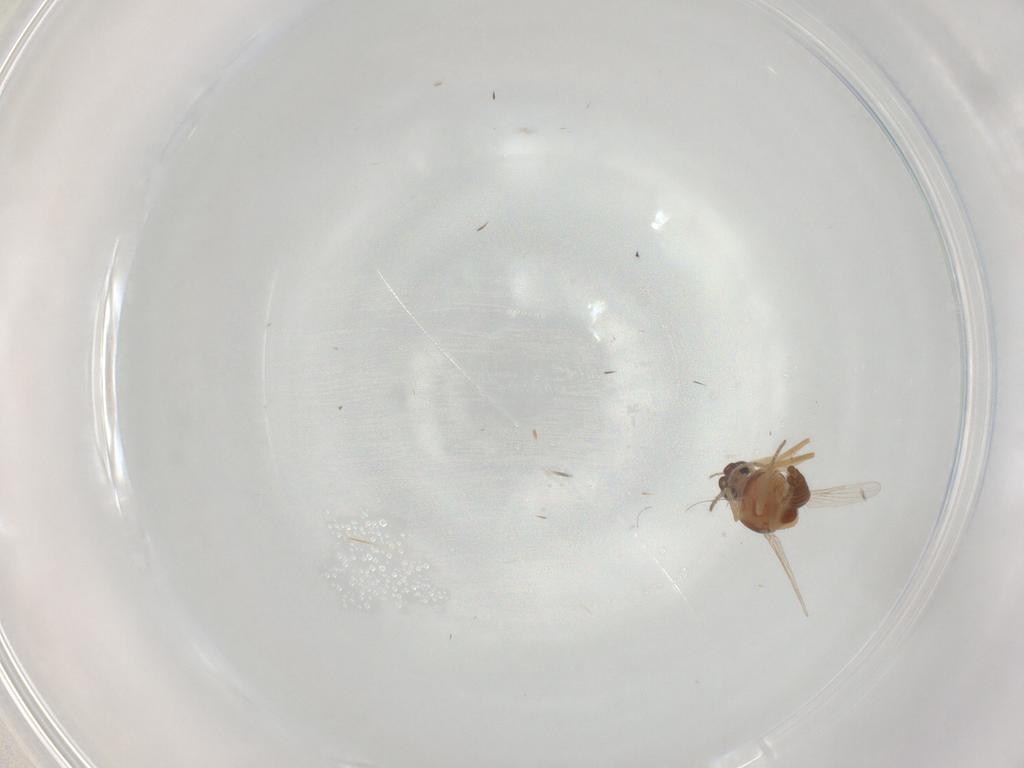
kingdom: Animalia
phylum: Arthropoda
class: Insecta
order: Diptera
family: Ceratopogonidae
